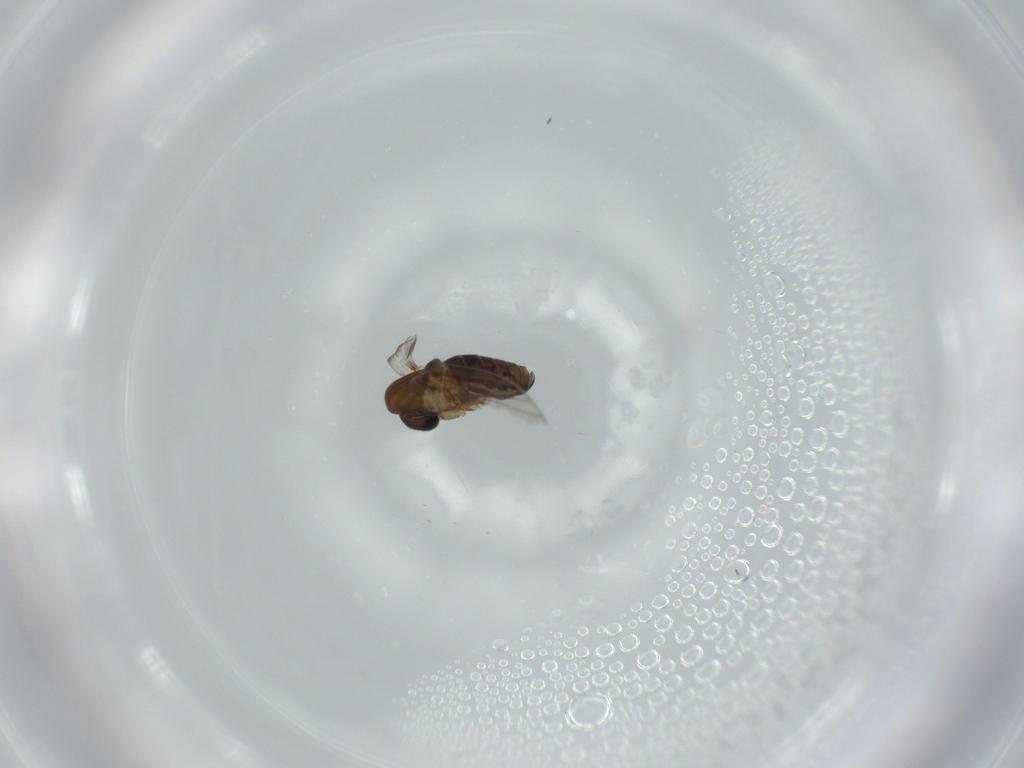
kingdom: Animalia
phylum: Arthropoda
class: Insecta
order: Diptera
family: Psychodidae
